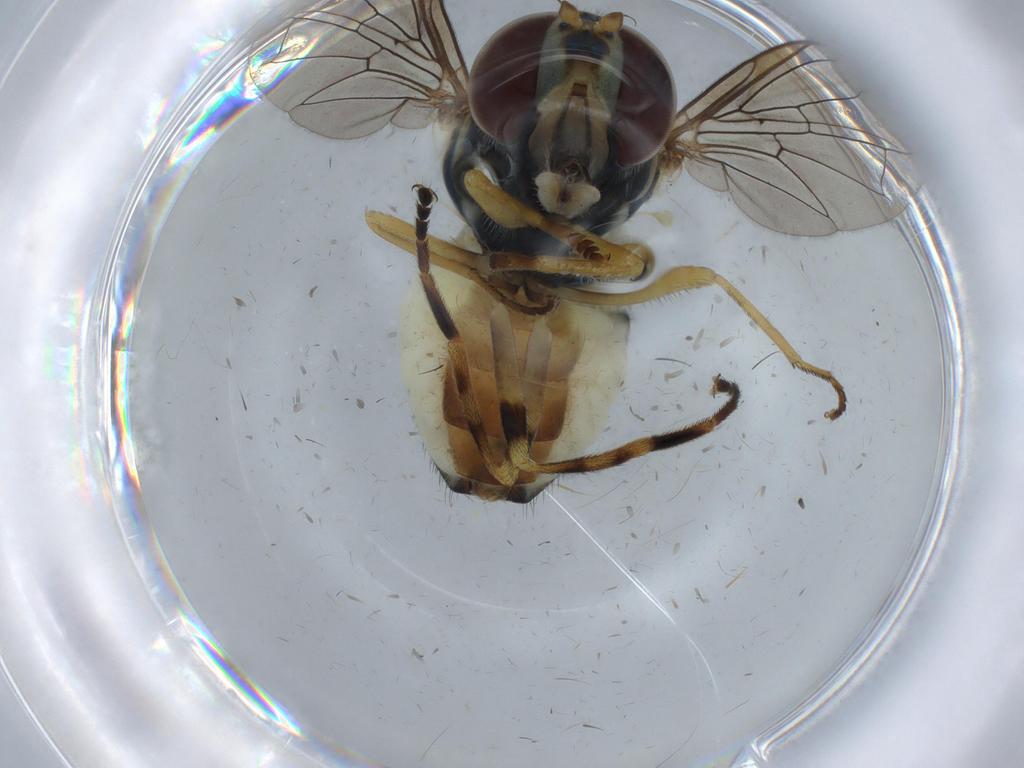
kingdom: Animalia
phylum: Arthropoda
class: Insecta
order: Diptera
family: Syrphidae
